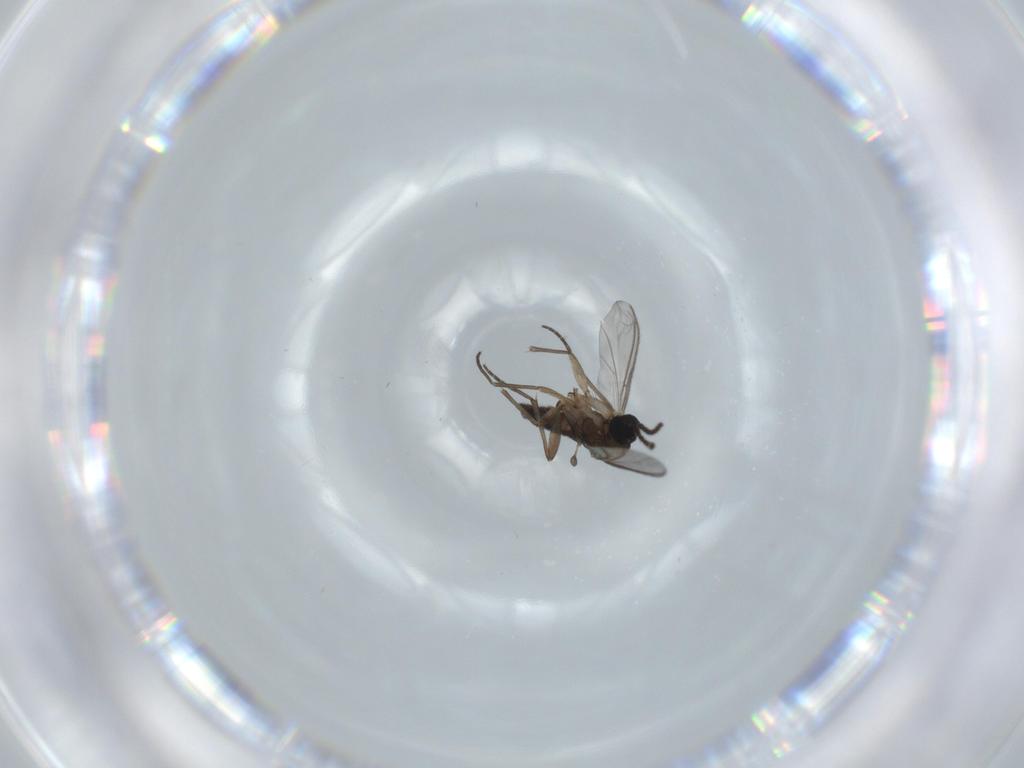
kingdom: Animalia
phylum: Arthropoda
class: Insecta
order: Diptera
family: Sciaridae
